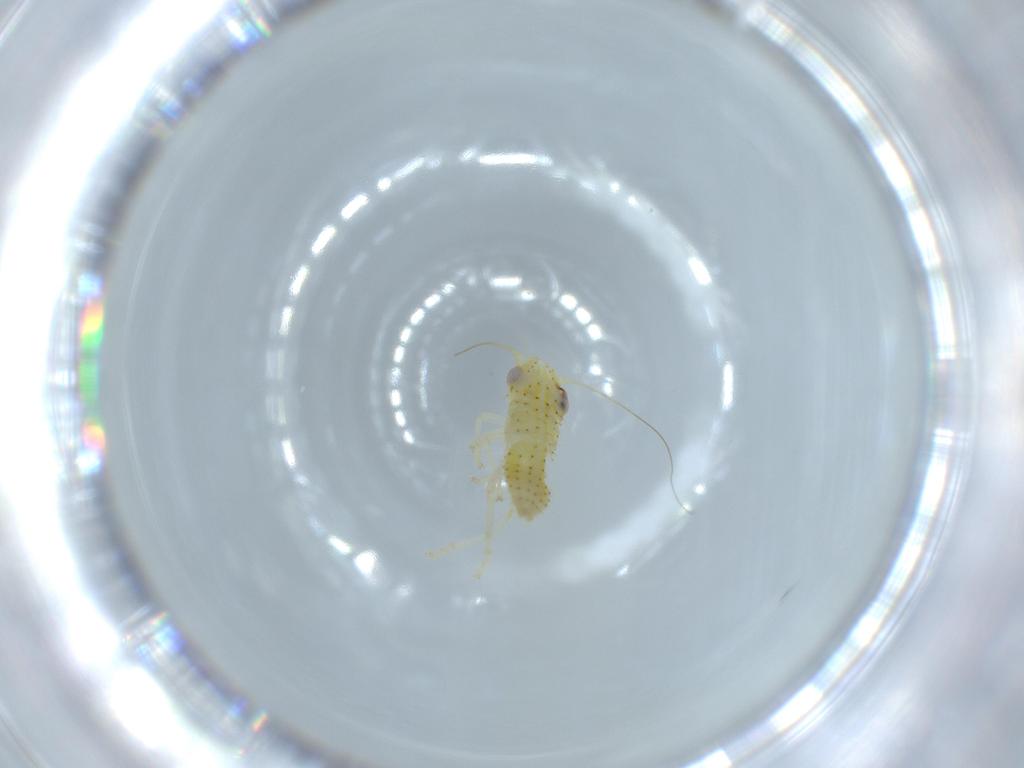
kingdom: Animalia
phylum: Arthropoda
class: Insecta
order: Hemiptera
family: Cicadellidae
